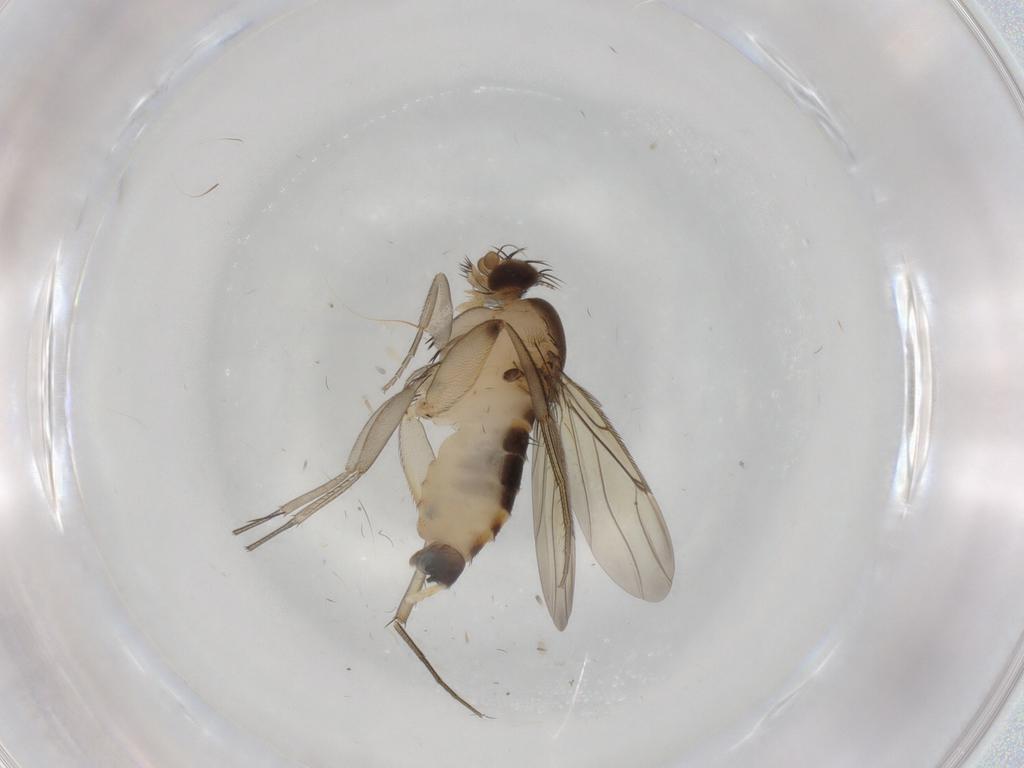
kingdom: Animalia
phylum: Arthropoda
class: Insecta
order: Diptera
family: Phoridae
